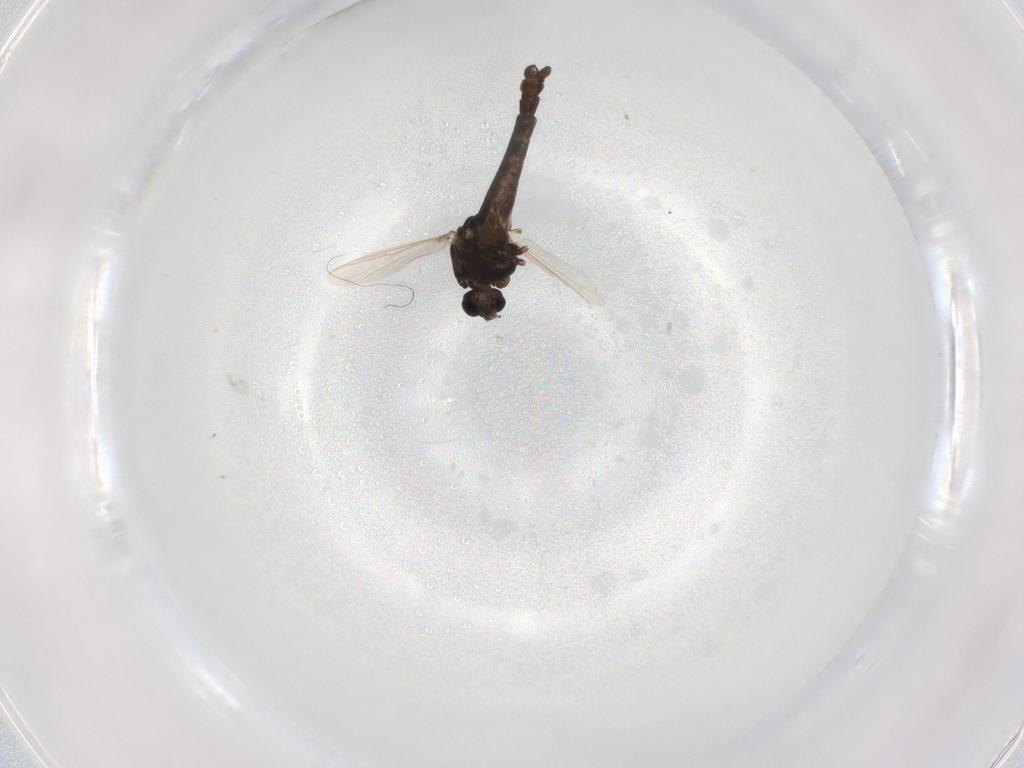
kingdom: Animalia
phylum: Arthropoda
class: Insecta
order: Diptera
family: Chironomidae
